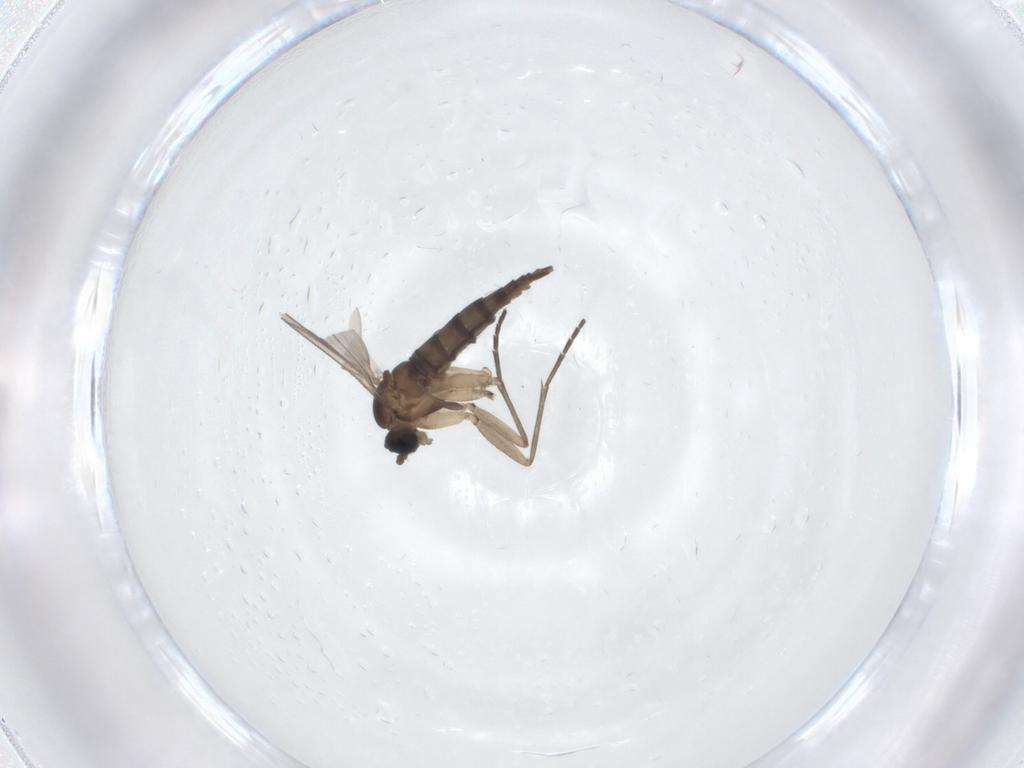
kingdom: Animalia
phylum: Arthropoda
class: Insecta
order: Diptera
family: Sciaridae
